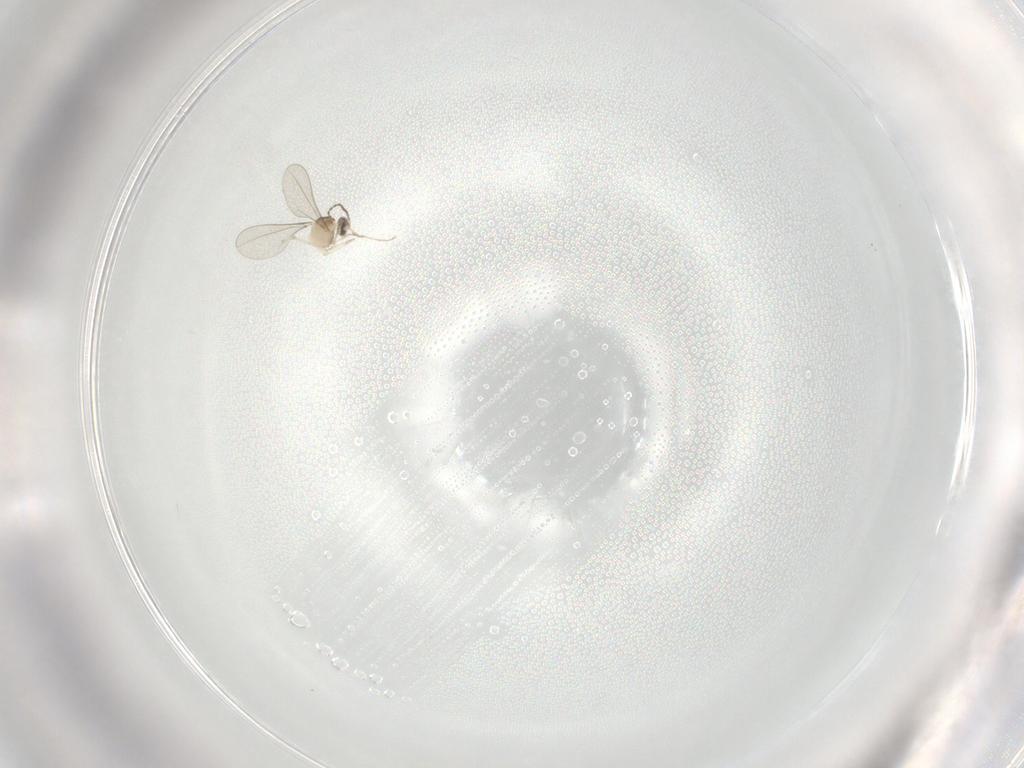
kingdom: Animalia
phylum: Arthropoda
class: Insecta
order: Diptera
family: Cecidomyiidae
